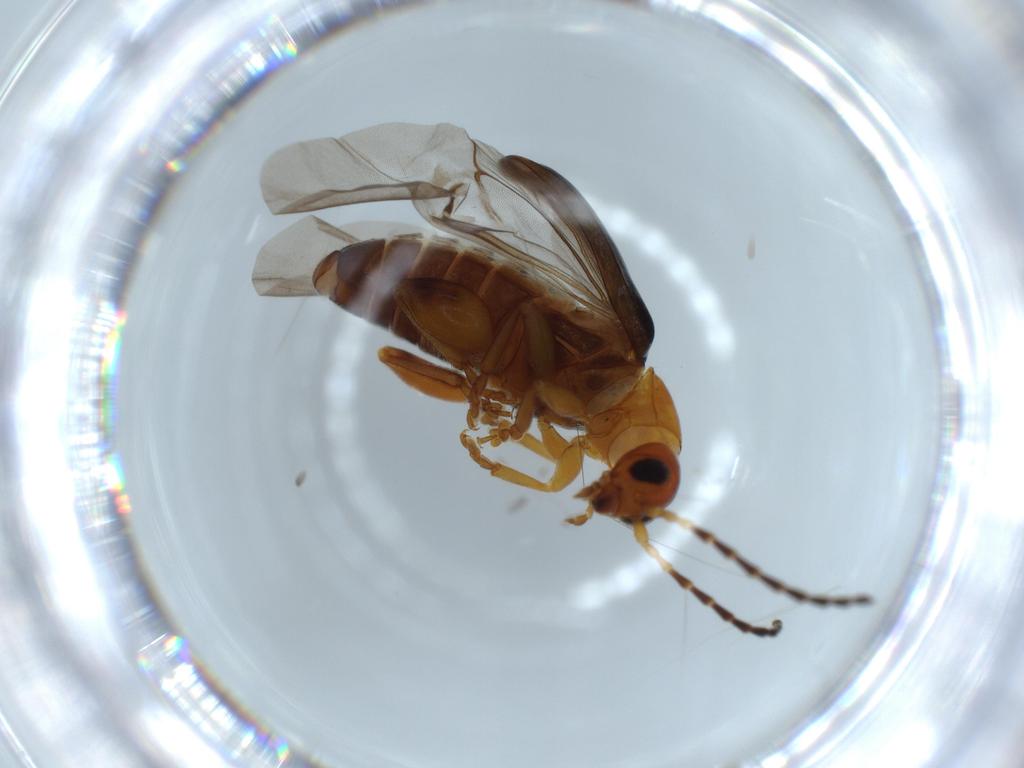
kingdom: Animalia
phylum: Arthropoda
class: Insecta
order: Coleoptera
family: Chrysomelidae
